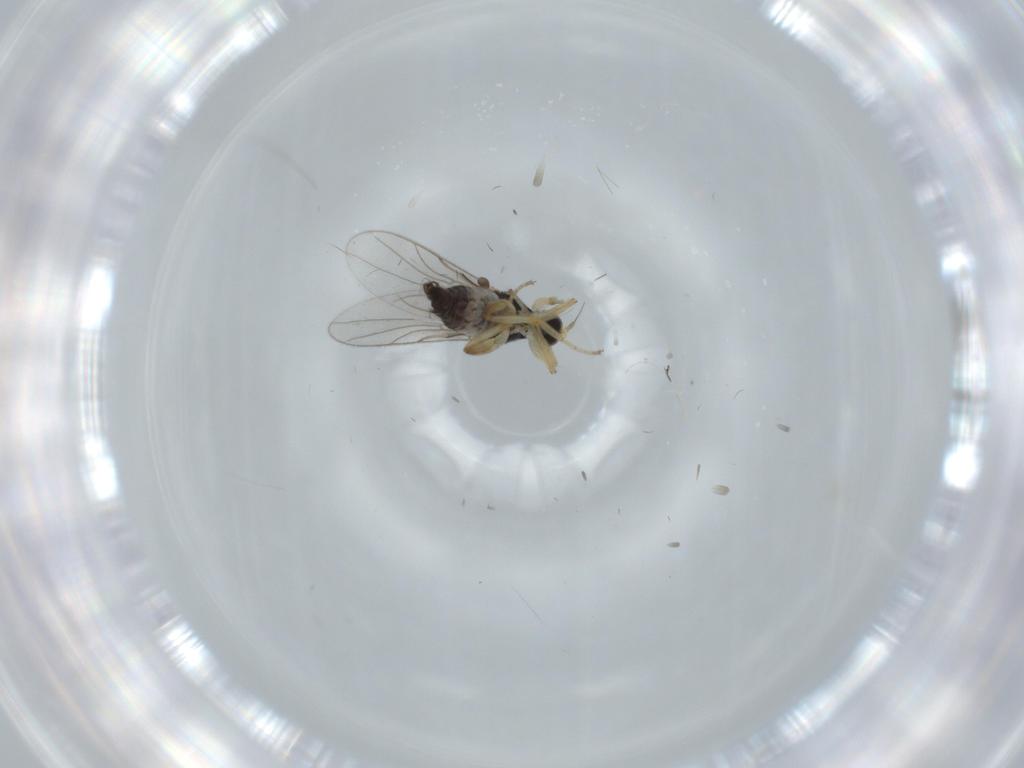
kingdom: Animalia
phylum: Arthropoda
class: Insecta
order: Diptera
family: Hybotidae
